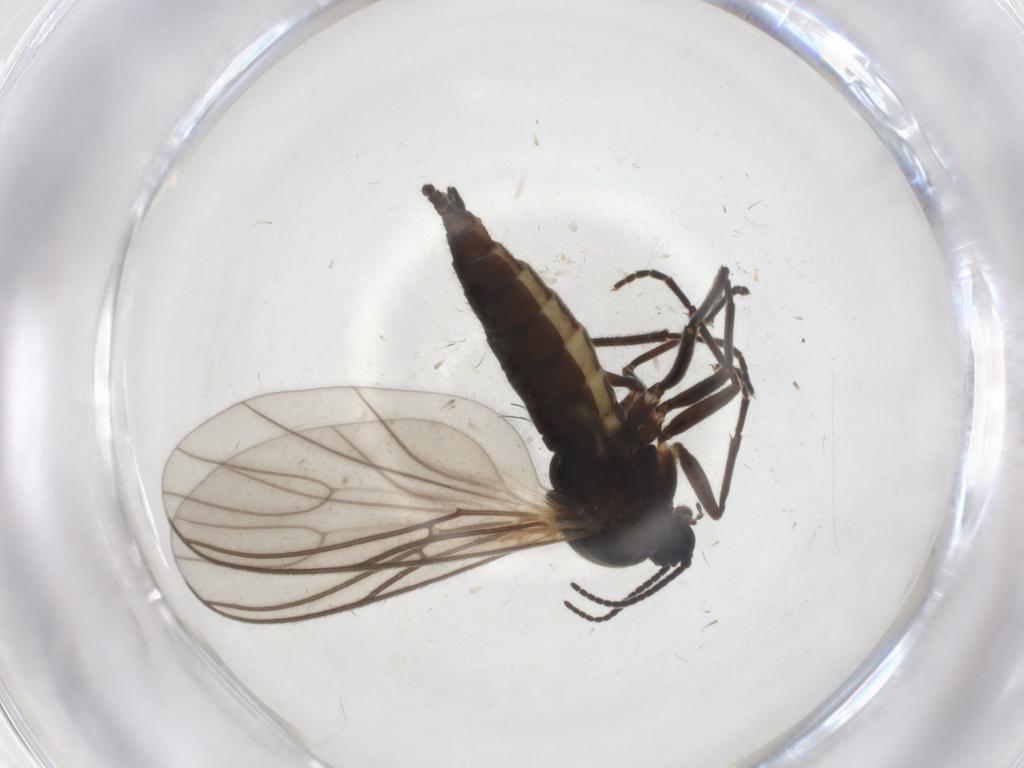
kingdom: Animalia
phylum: Arthropoda
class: Insecta
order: Diptera
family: Sciaridae
